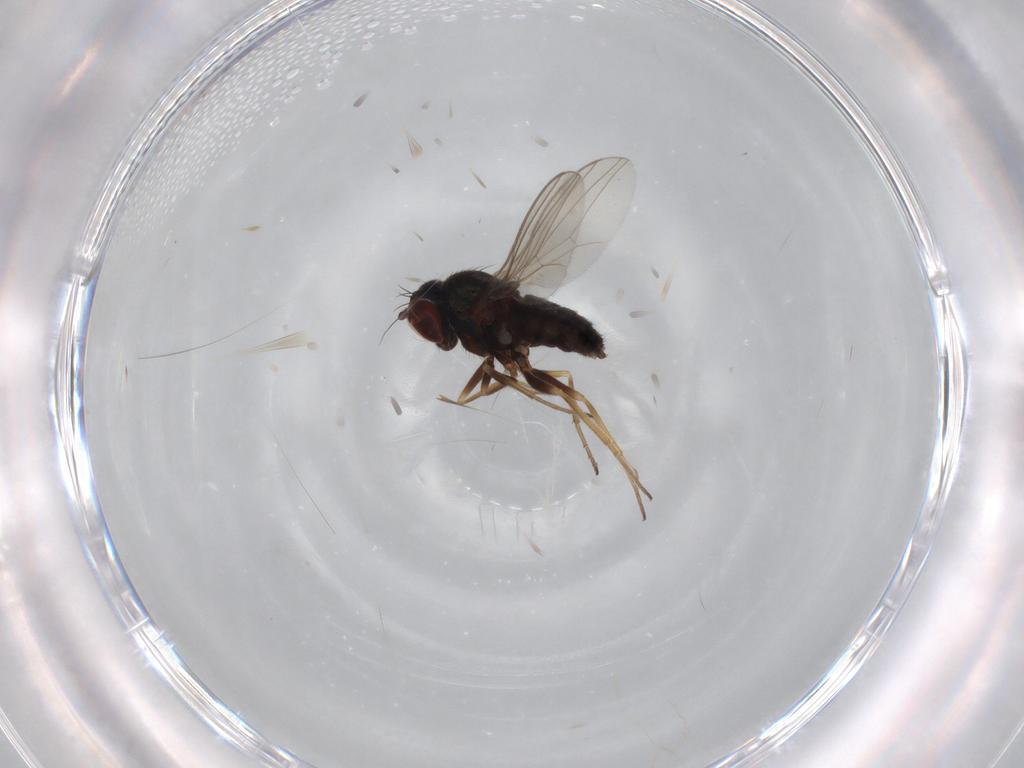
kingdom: Animalia
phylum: Arthropoda
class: Insecta
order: Diptera
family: Dolichopodidae
